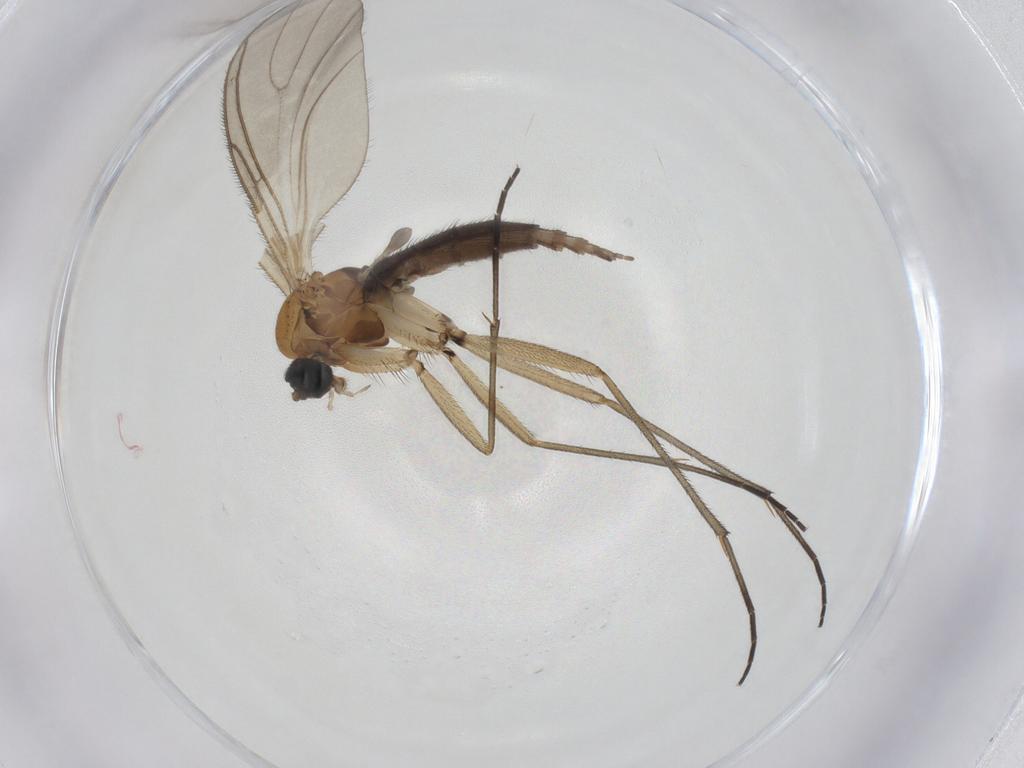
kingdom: Animalia
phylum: Arthropoda
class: Insecta
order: Diptera
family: Sciaridae
